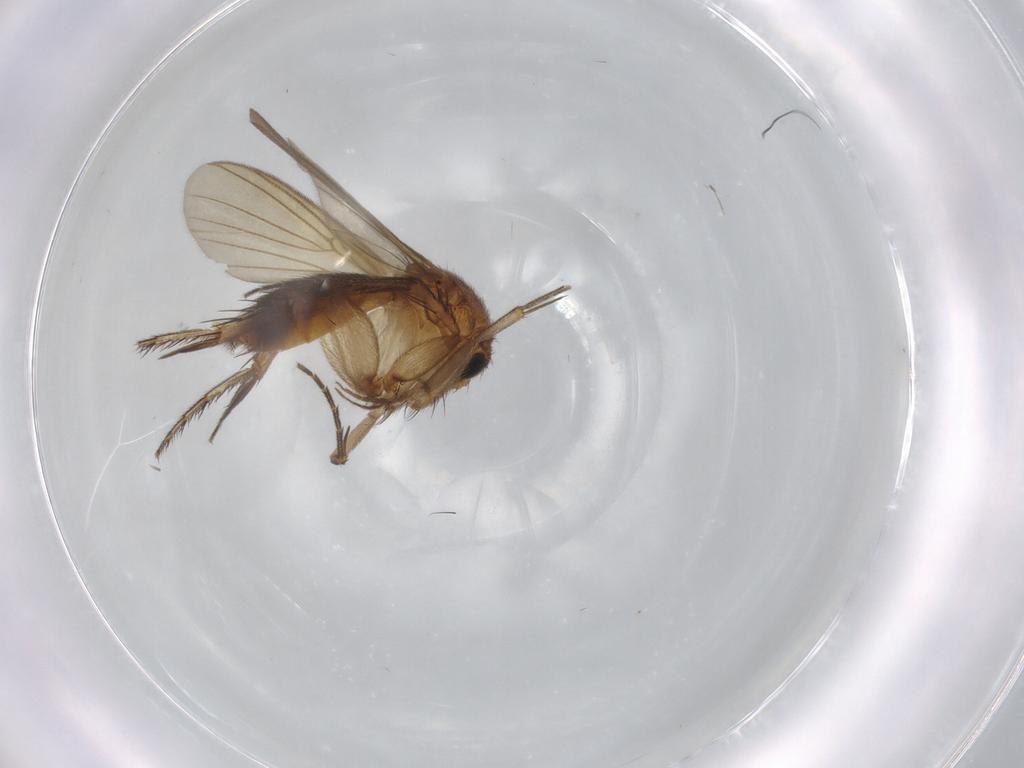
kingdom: Animalia
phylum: Arthropoda
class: Insecta
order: Diptera
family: Mycetophilidae
